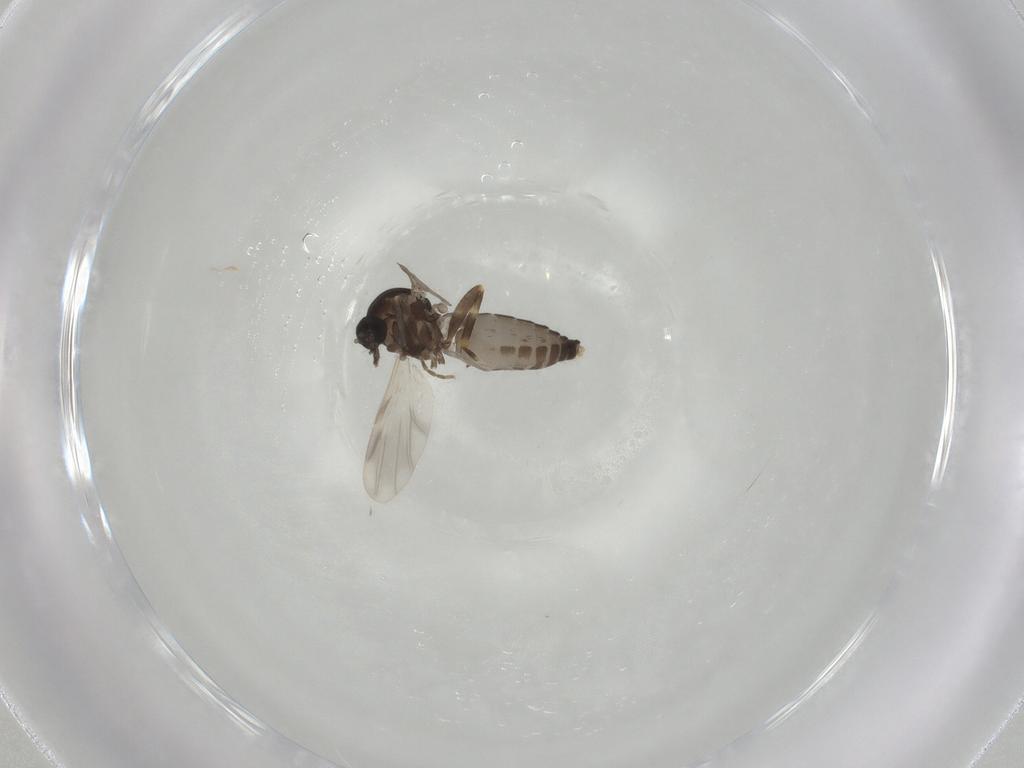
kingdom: Animalia
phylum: Arthropoda
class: Insecta
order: Diptera
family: Ceratopogonidae
